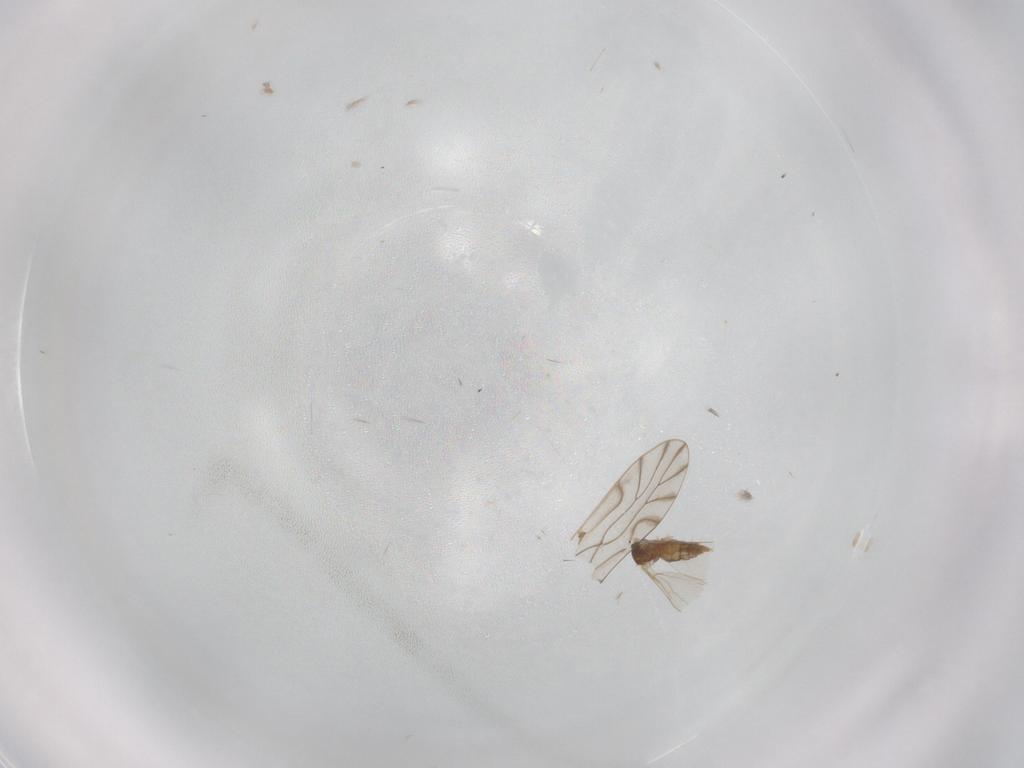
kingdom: Animalia
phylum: Arthropoda
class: Insecta
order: Diptera
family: Cecidomyiidae
